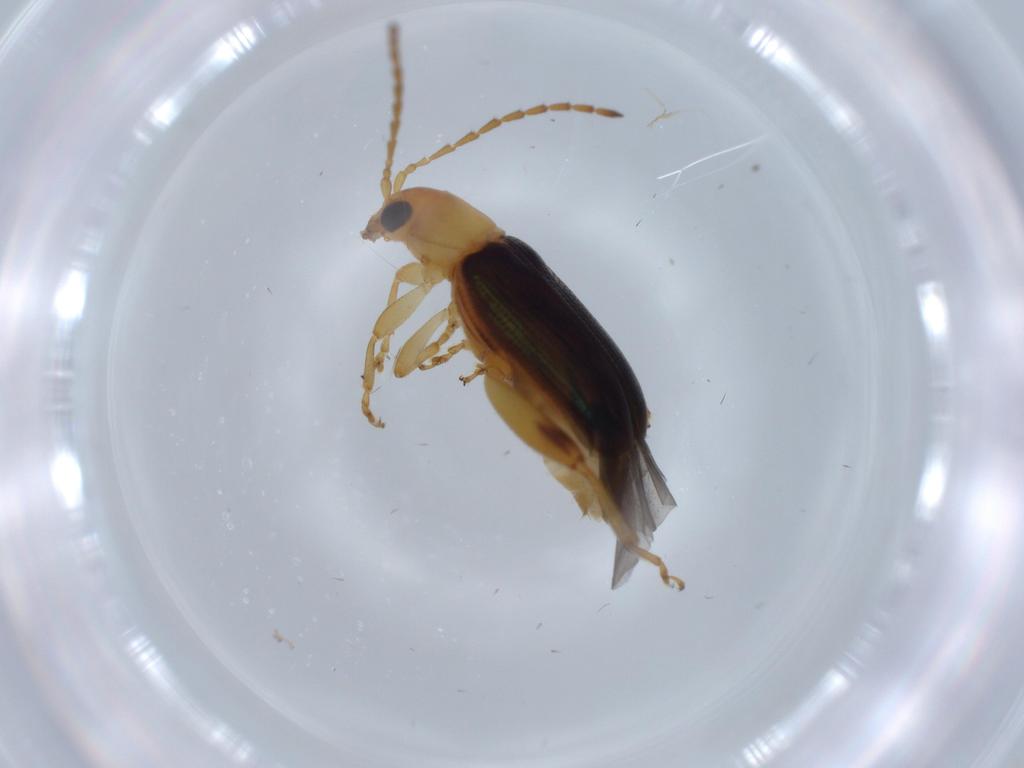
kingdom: Animalia
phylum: Arthropoda
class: Insecta
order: Coleoptera
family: Chrysomelidae
